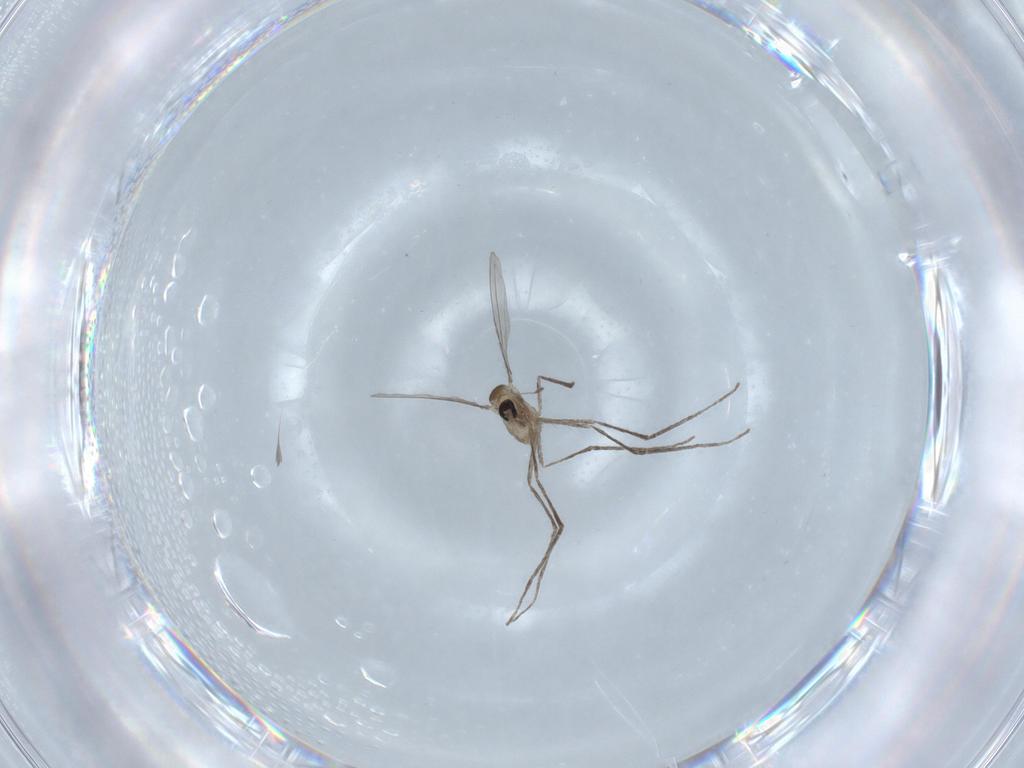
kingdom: Animalia
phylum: Arthropoda
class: Insecta
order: Diptera
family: Cecidomyiidae
